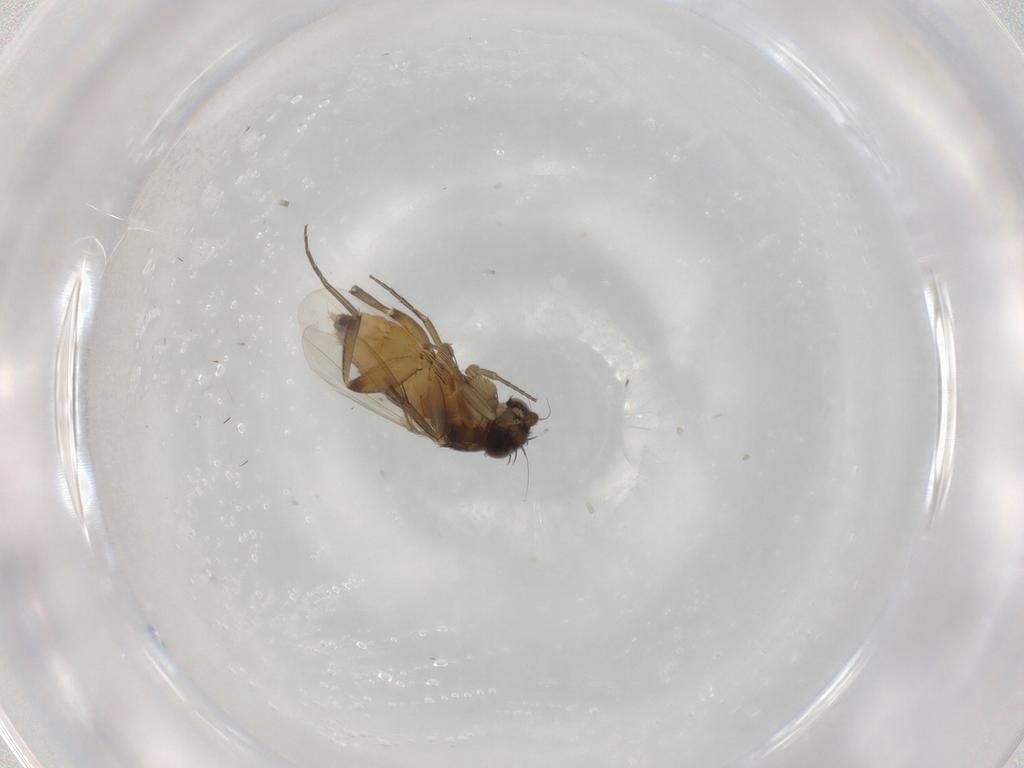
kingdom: Animalia
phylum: Arthropoda
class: Insecta
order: Diptera
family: Phoridae
